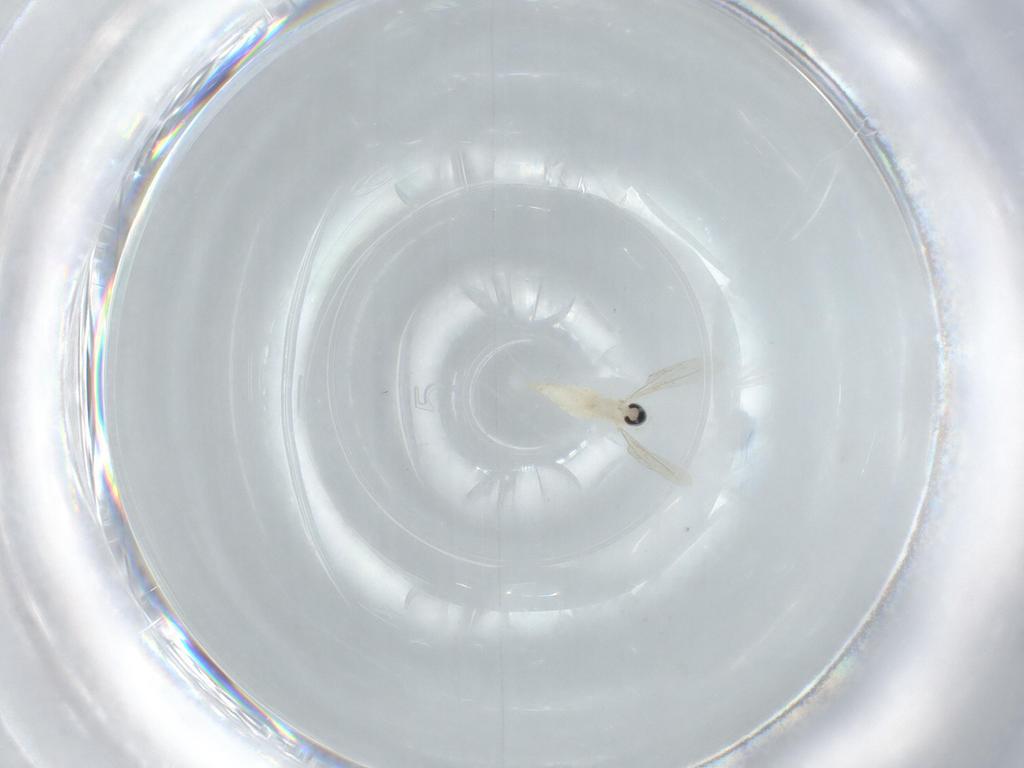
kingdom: Animalia
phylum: Arthropoda
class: Insecta
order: Diptera
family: Cecidomyiidae
